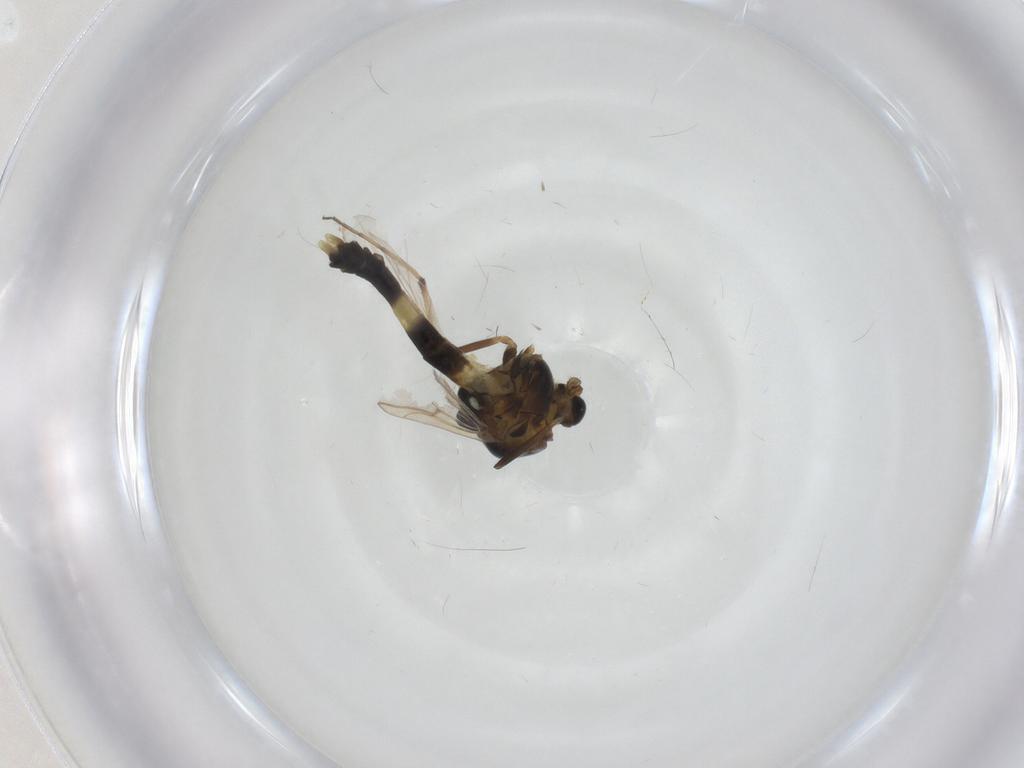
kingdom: Animalia
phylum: Arthropoda
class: Insecta
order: Diptera
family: Chironomidae
